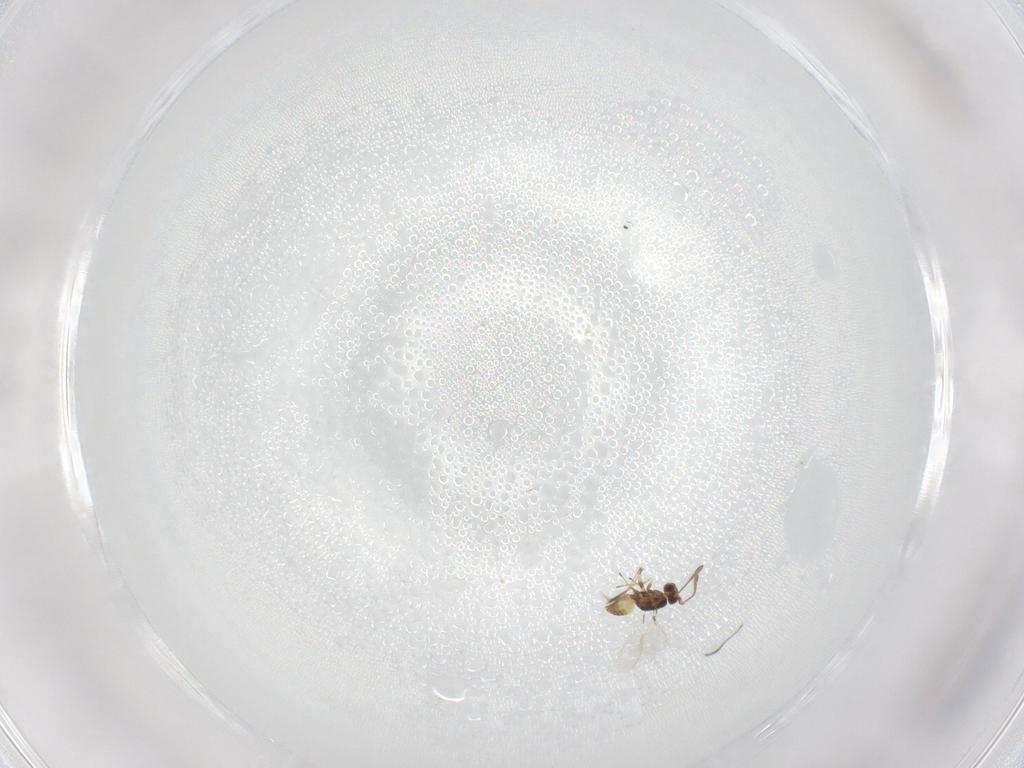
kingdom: Animalia
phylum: Arthropoda
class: Insecta
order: Hymenoptera
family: Mymaridae
